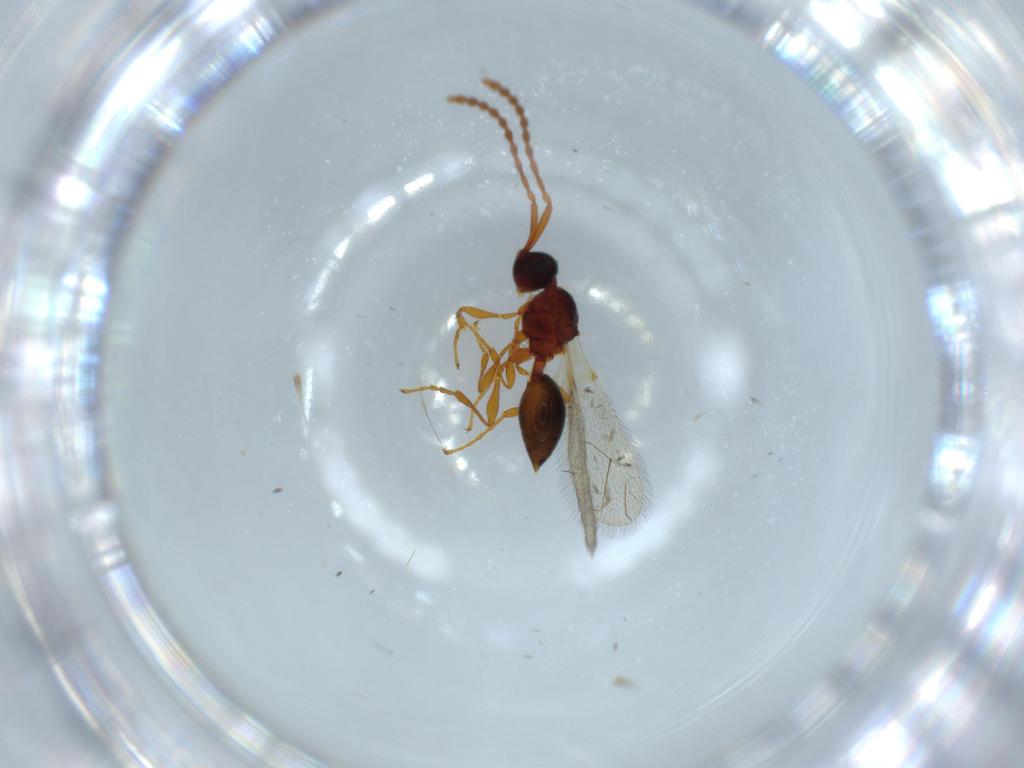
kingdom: Animalia
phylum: Arthropoda
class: Insecta
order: Hymenoptera
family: Diapriidae
